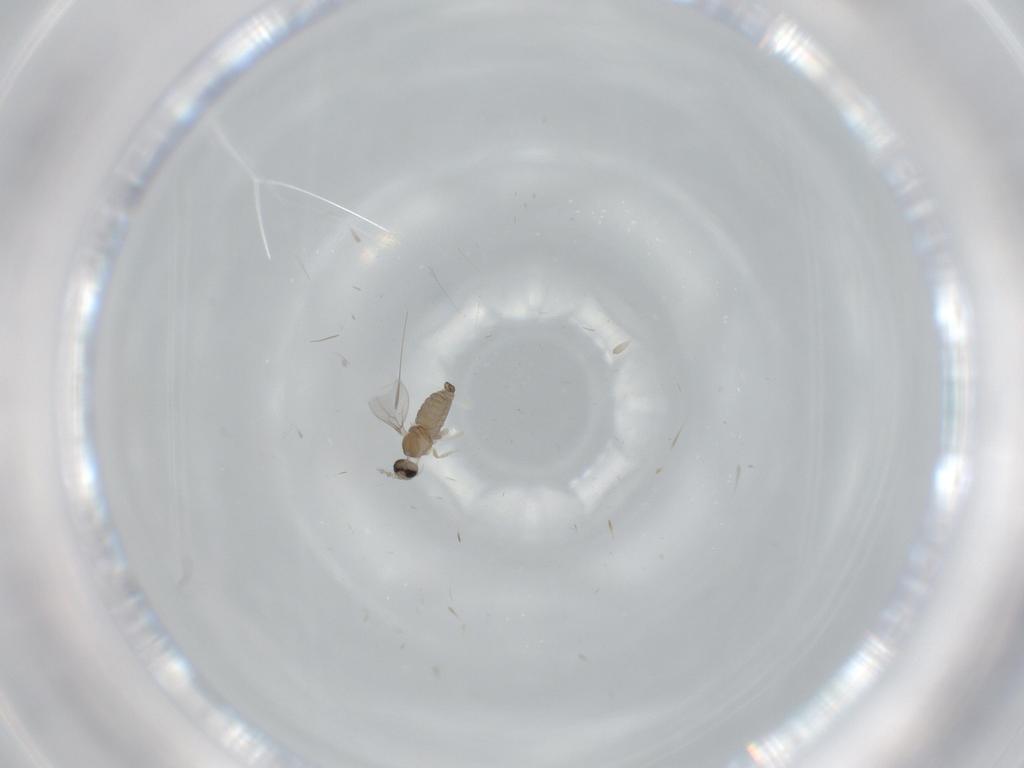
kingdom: Animalia
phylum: Arthropoda
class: Insecta
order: Diptera
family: Cecidomyiidae
